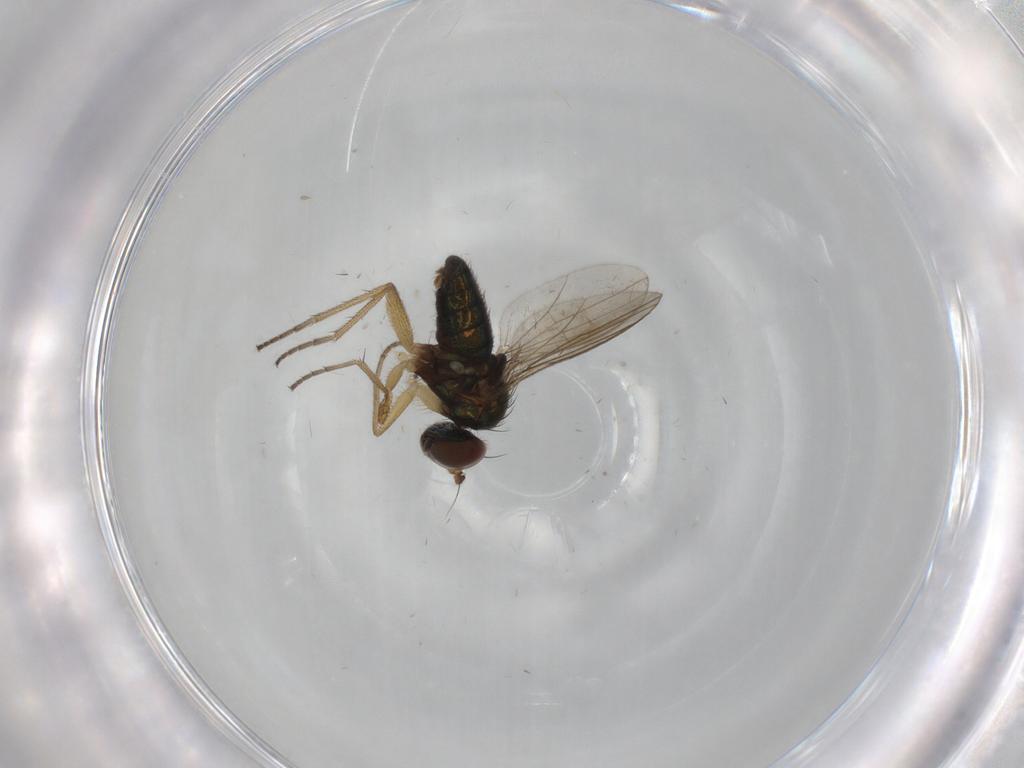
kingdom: Animalia
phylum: Arthropoda
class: Insecta
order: Diptera
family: Dolichopodidae
